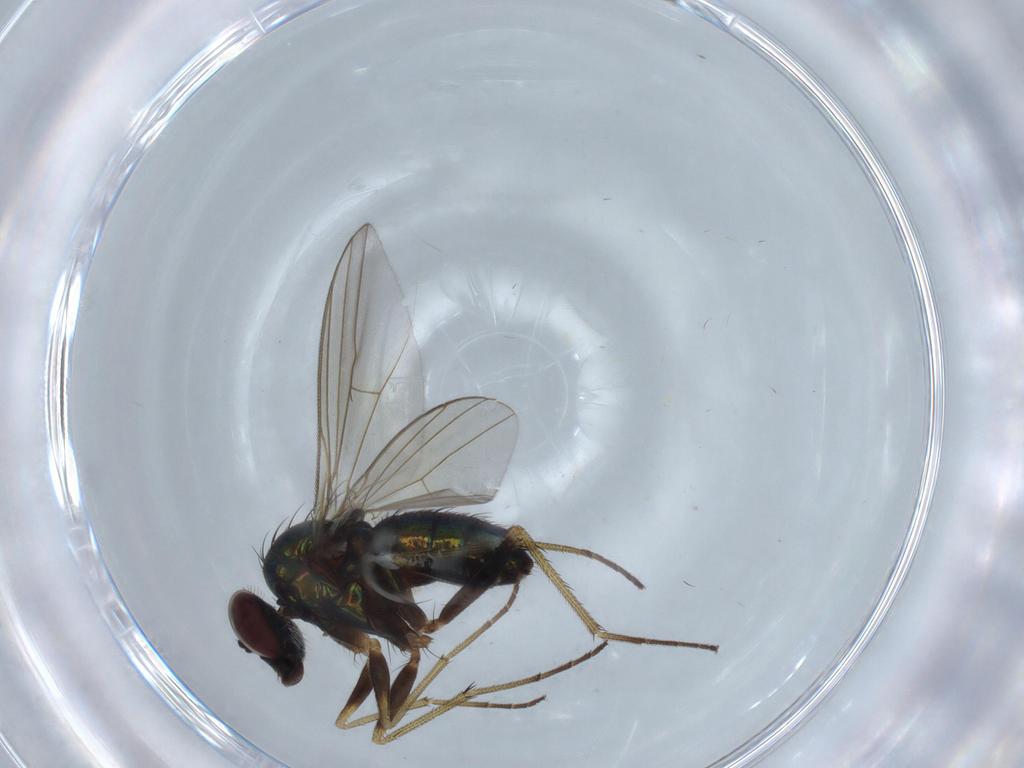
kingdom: Animalia
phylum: Arthropoda
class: Insecta
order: Diptera
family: Dolichopodidae
